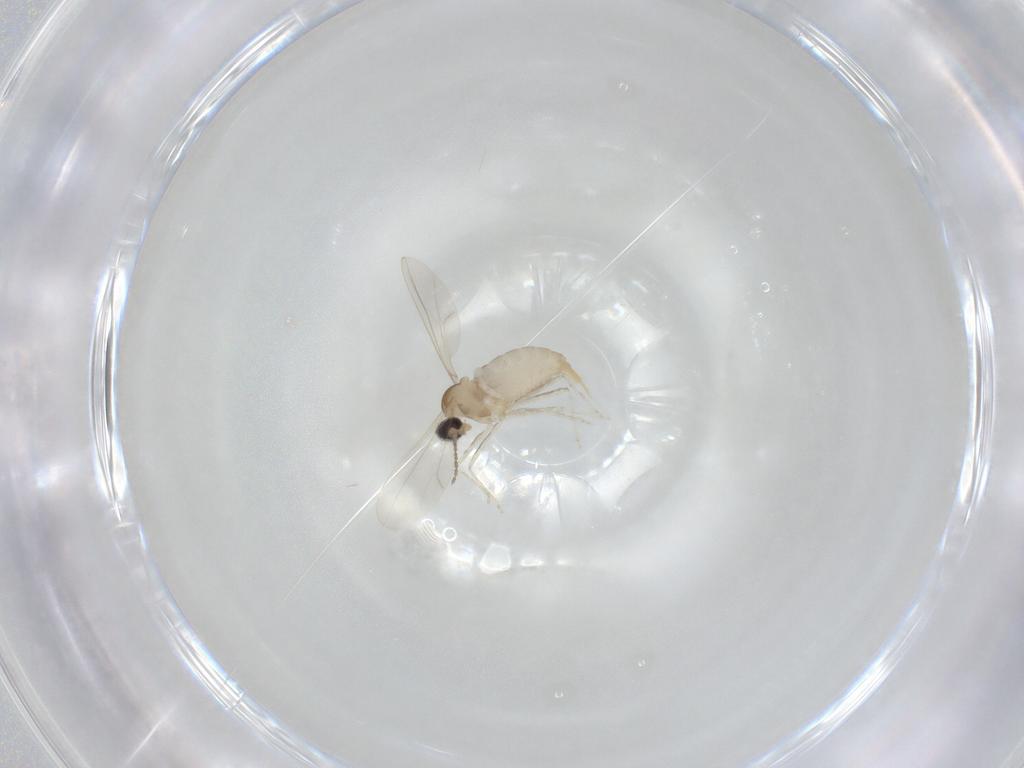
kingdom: Animalia
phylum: Arthropoda
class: Insecta
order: Diptera
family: Cecidomyiidae
